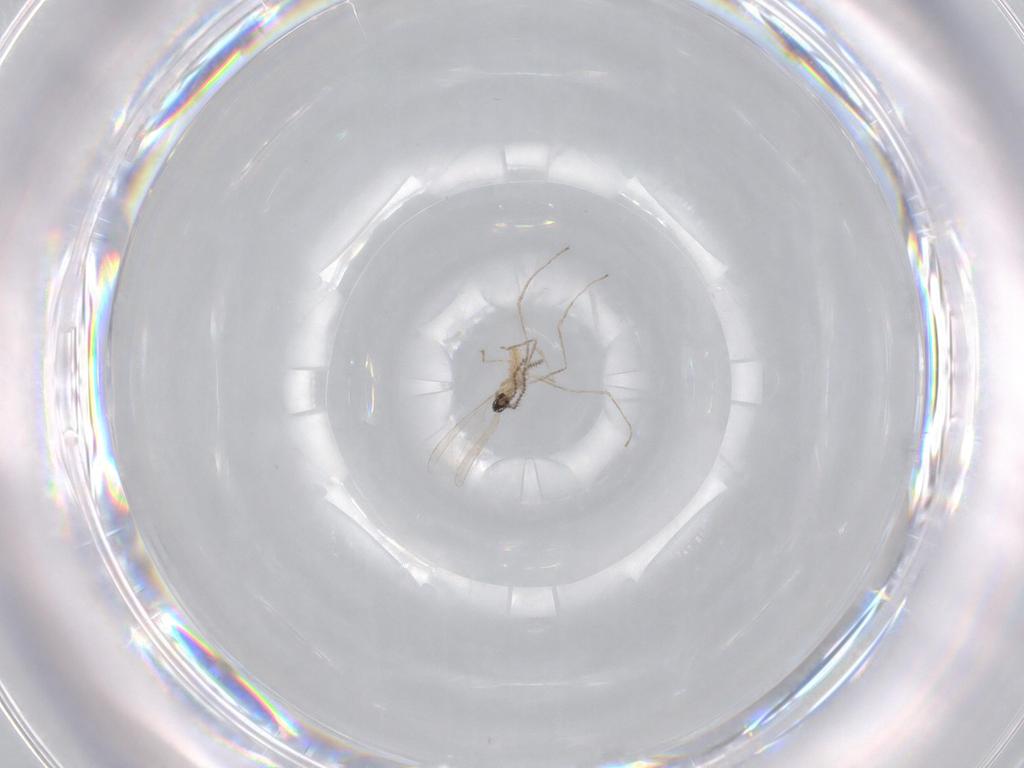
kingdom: Animalia
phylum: Arthropoda
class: Insecta
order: Diptera
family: Cecidomyiidae
